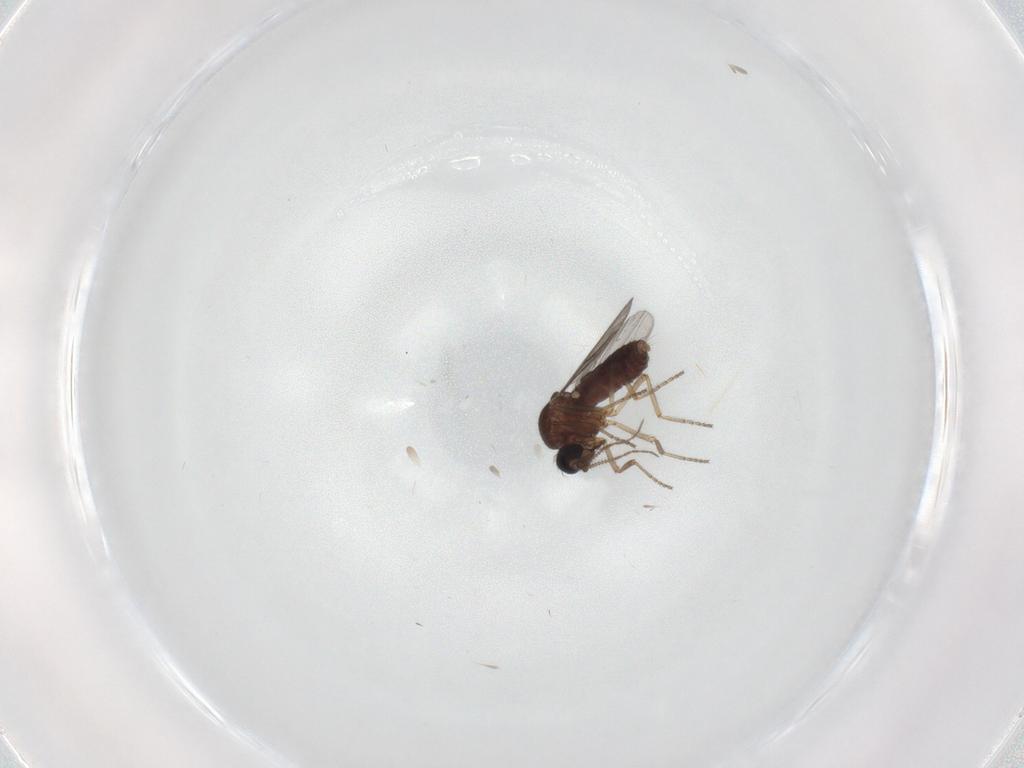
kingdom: Animalia
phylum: Arthropoda
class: Insecta
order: Diptera
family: Ceratopogonidae
